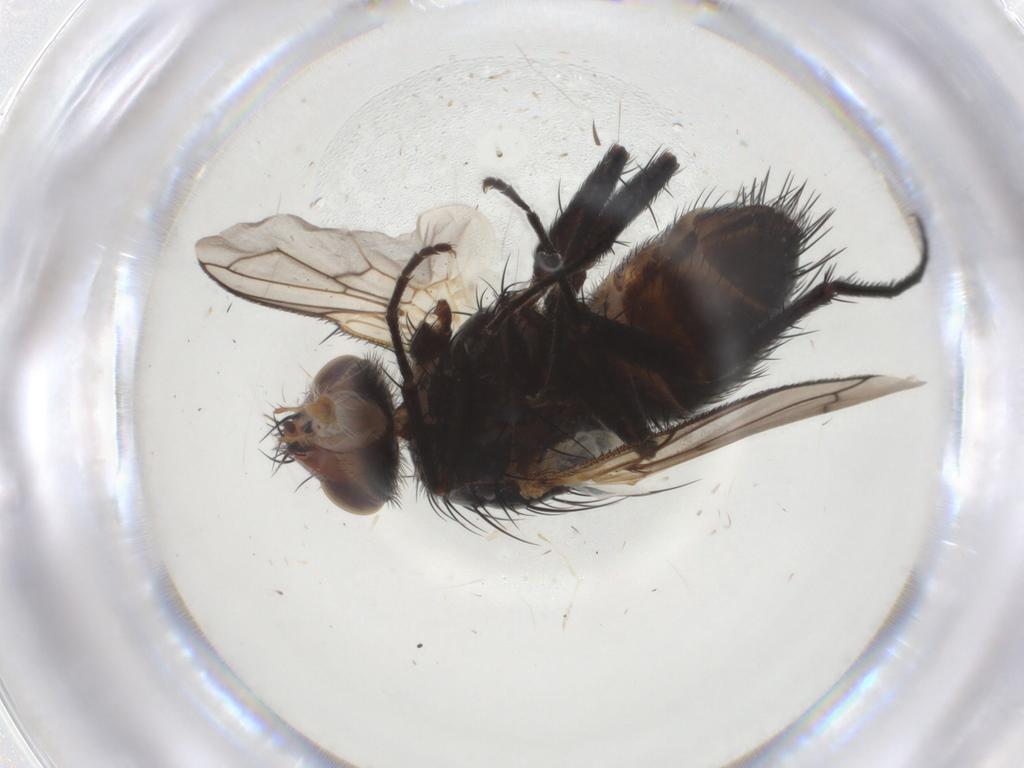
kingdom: Animalia
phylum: Arthropoda
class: Insecta
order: Diptera
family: Tachinidae
